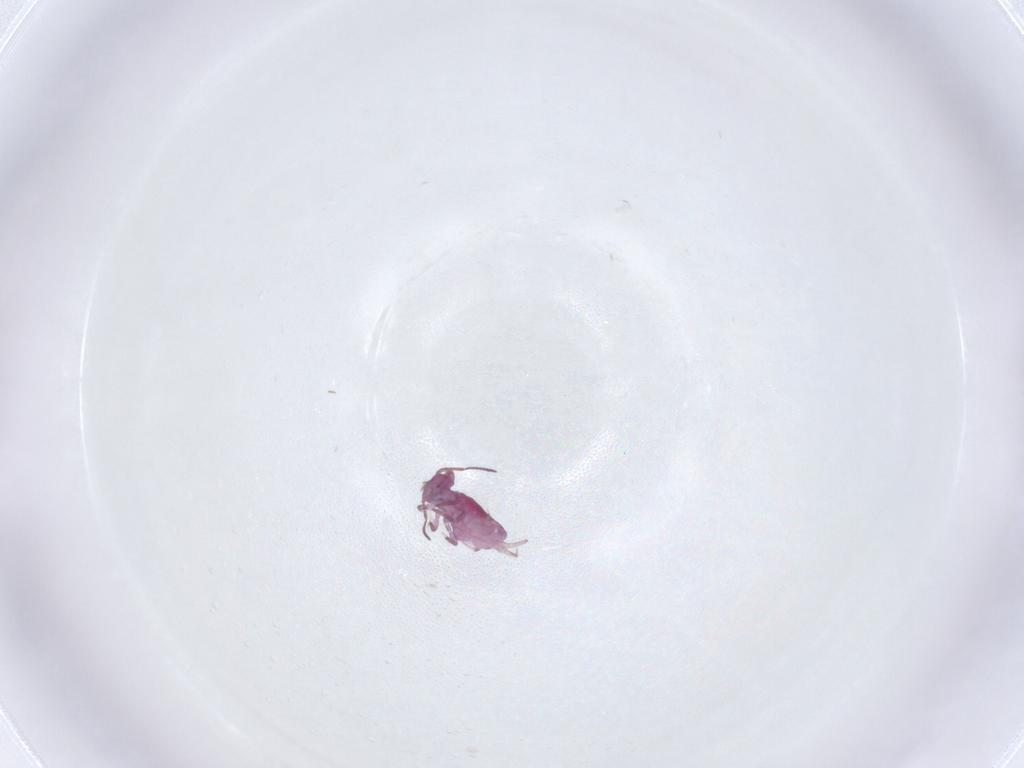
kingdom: Animalia
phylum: Arthropoda
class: Collembola
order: Symphypleona
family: Sminthuridae
